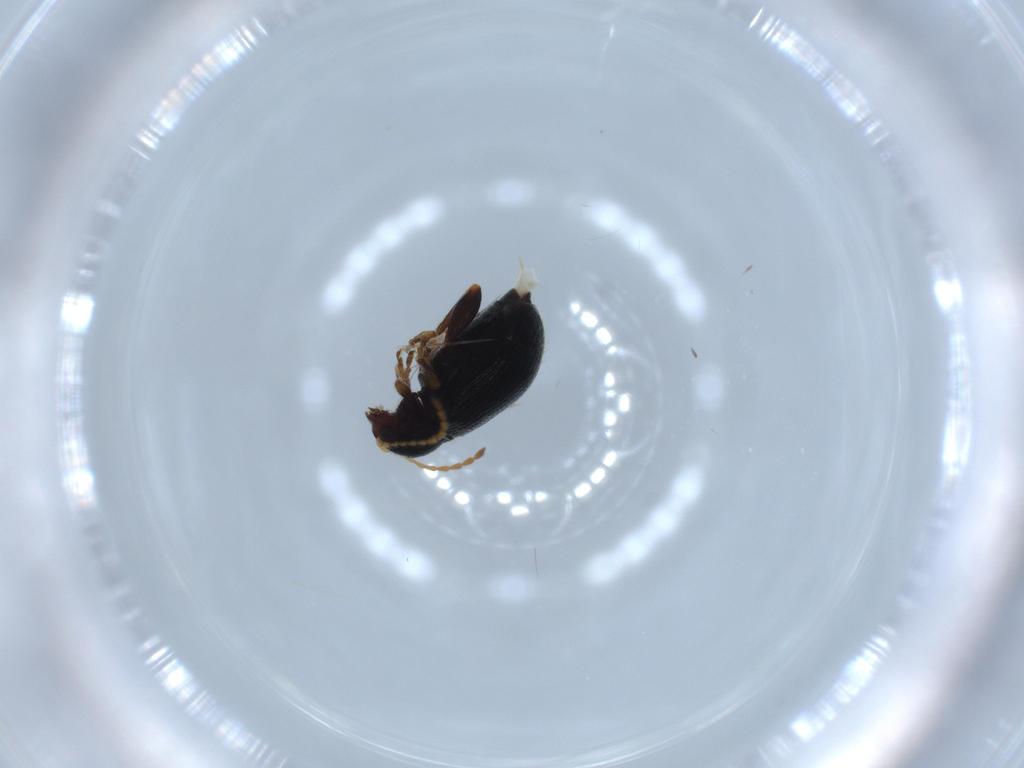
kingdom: Animalia
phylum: Arthropoda
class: Insecta
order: Coleoptera
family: Chrysomelidae
